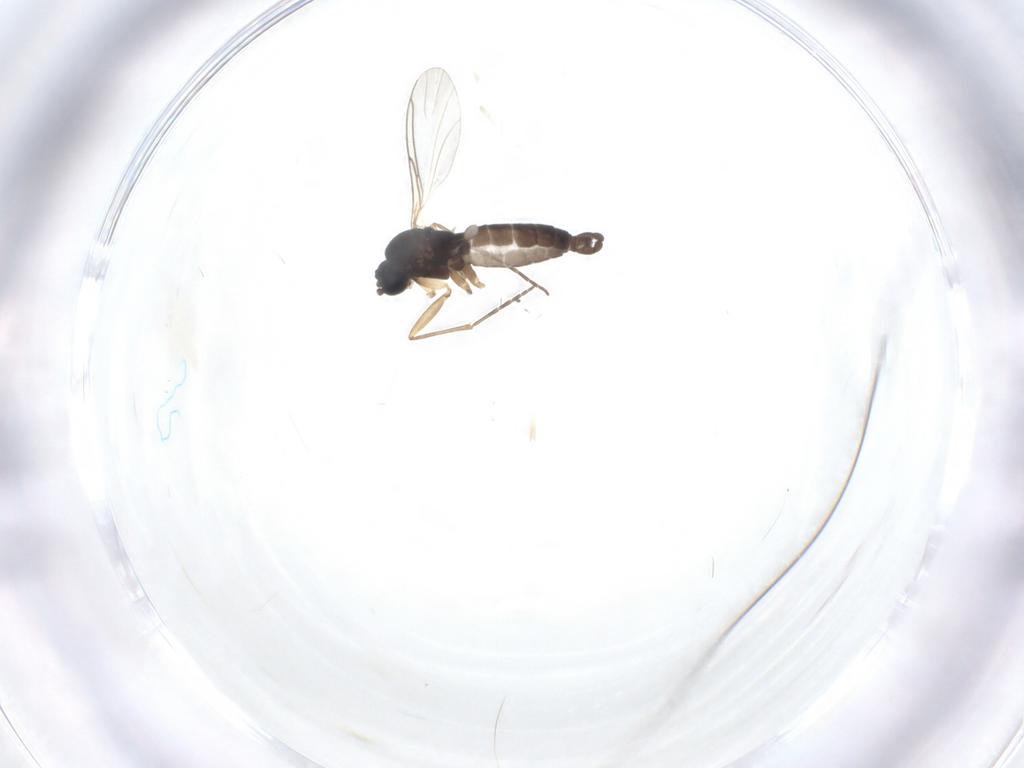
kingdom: Animalia
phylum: Arthropoda
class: Insecta
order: Diptera
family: Sciaridae
